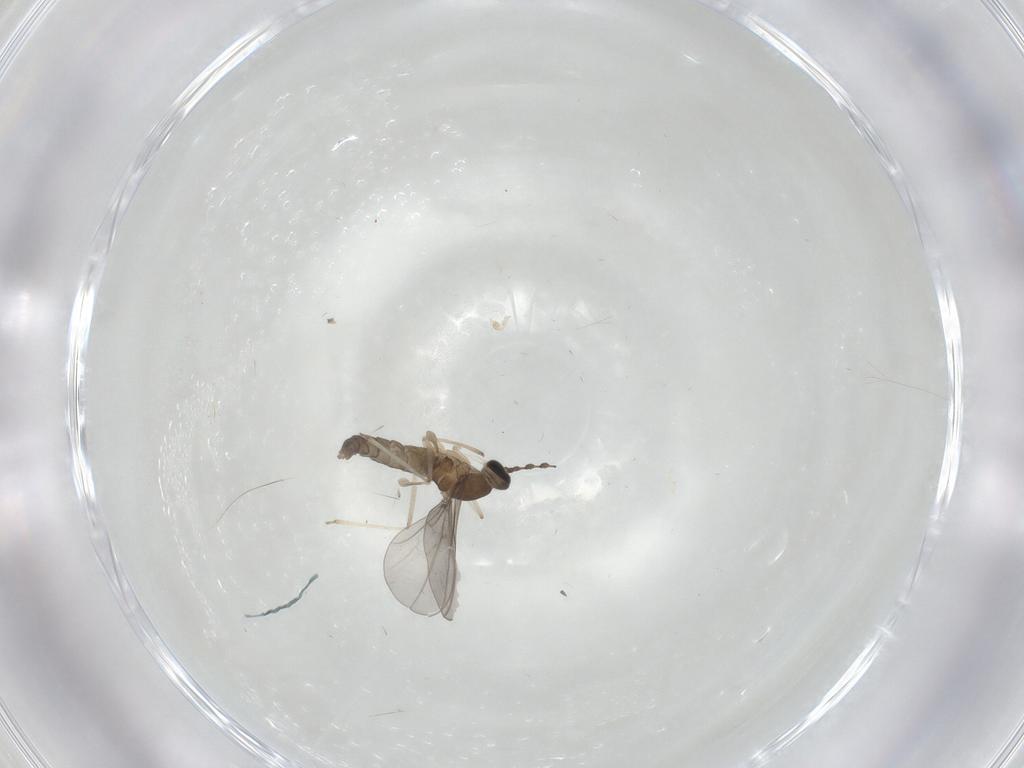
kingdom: Animalia
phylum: Arthropoda
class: Insecta
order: Diptera
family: Cecidomyiidae
